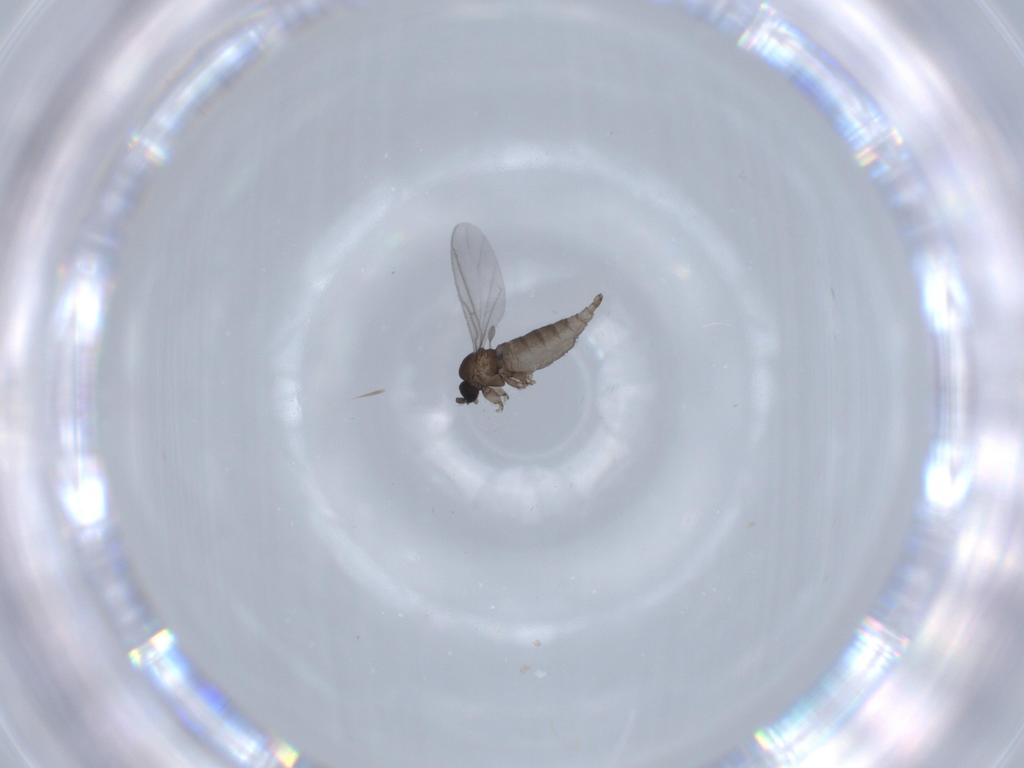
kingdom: Animalia
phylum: Arthropoda
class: Insecta
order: Diptera
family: Sciaridae
